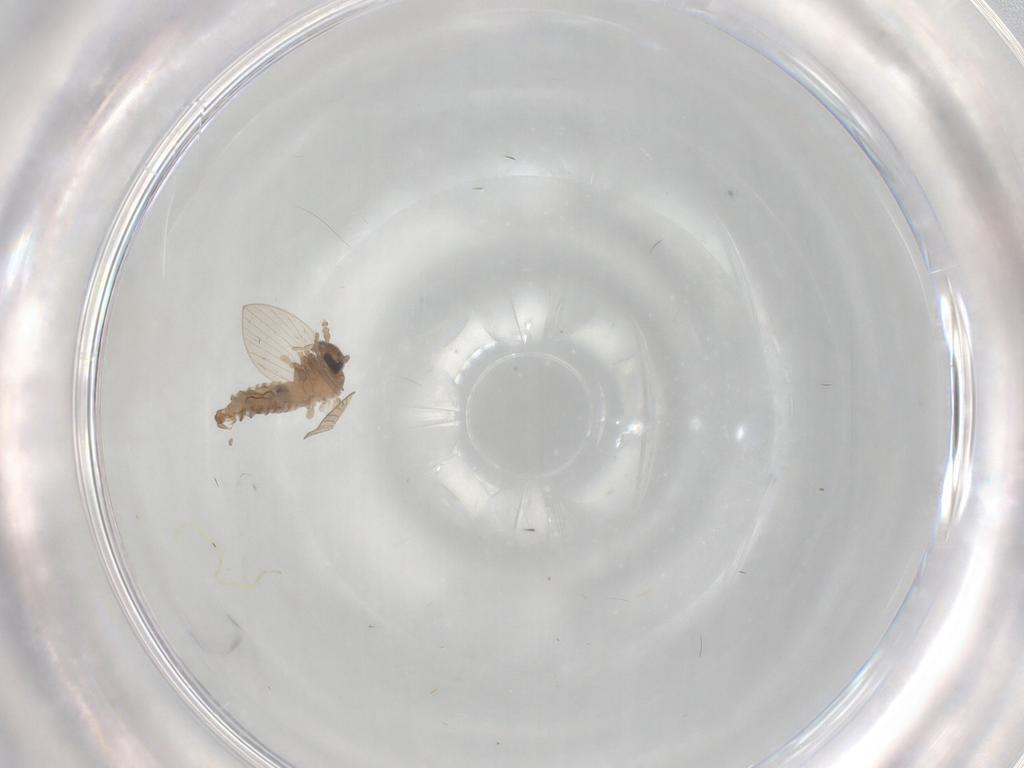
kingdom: Animalia
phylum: Arthropoda
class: Insecta
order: Diptera
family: Psychodidae
